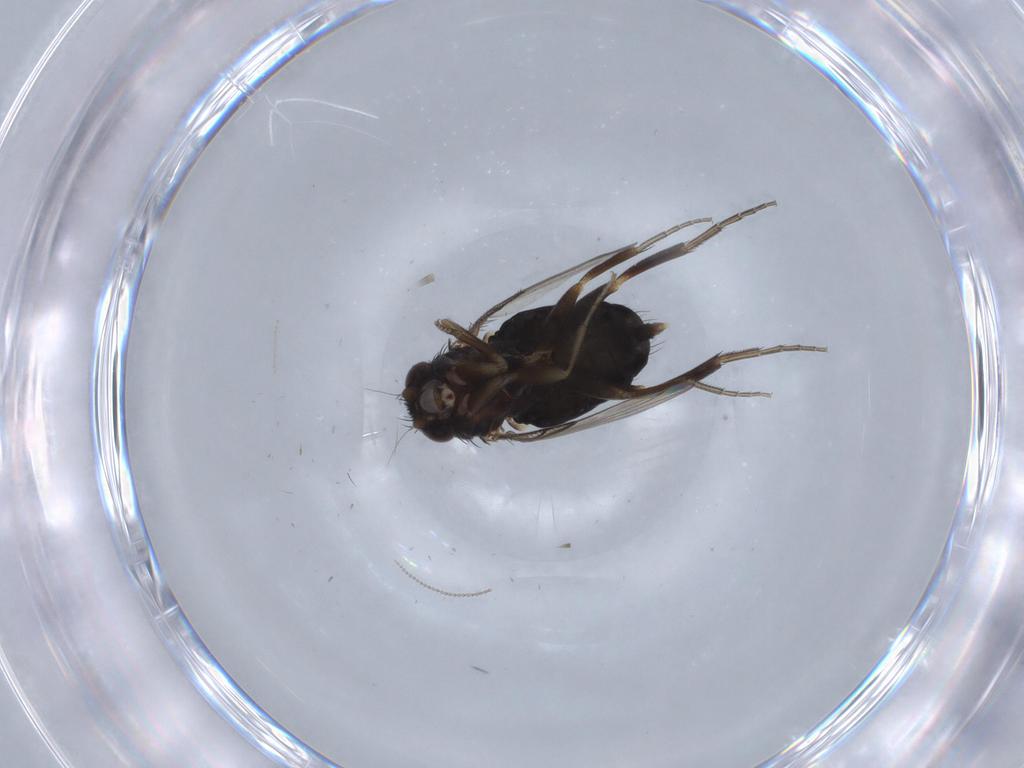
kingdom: Animalia
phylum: Arthropoda
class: Insecta
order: Diptera
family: Phoridae
